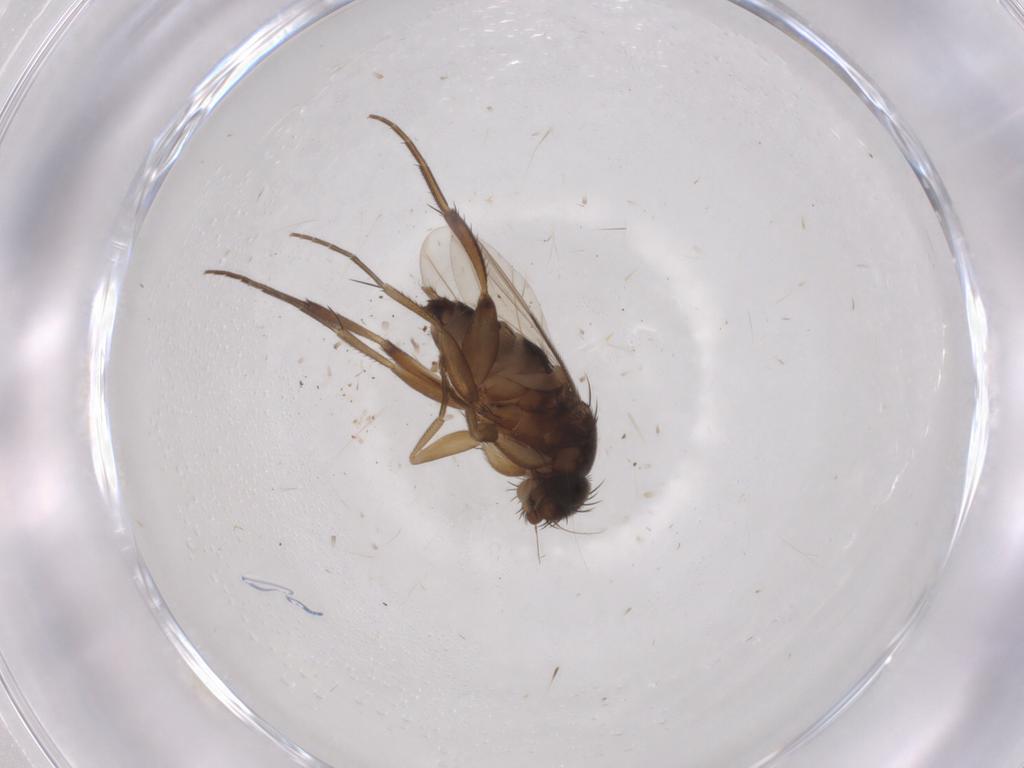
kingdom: Animalia
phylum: Arthropoda
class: Insecta
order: Diptera
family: Phoridae
